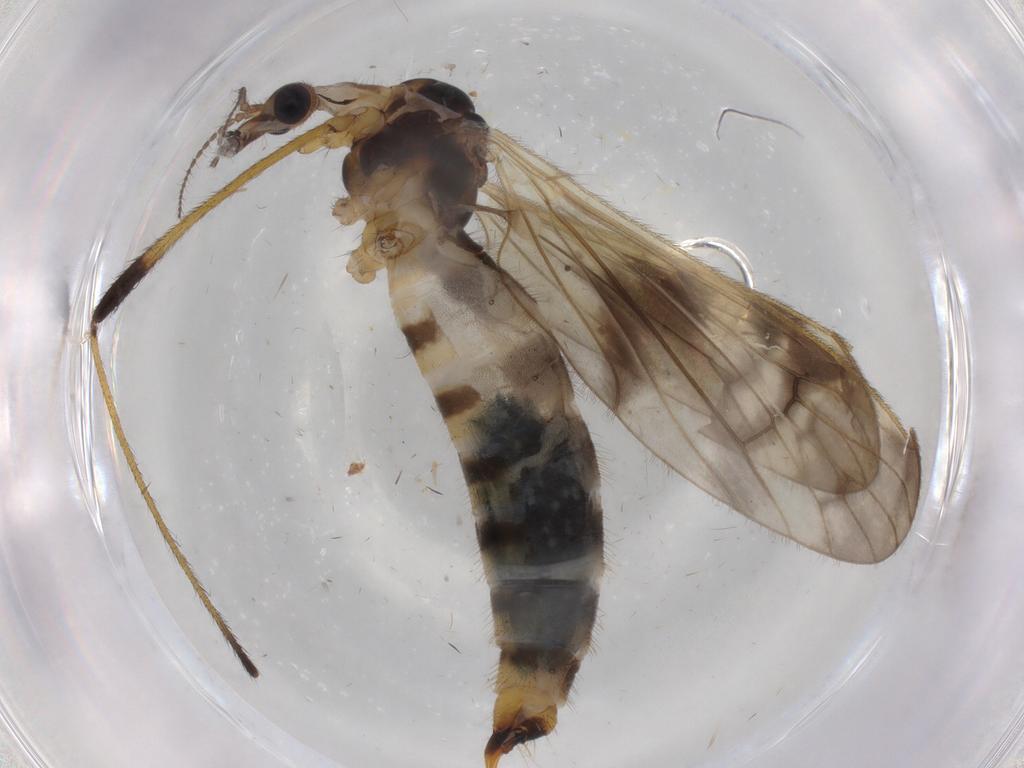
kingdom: Animalia
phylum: Arthropoda
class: Insecta
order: Diptera
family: Phoridae
